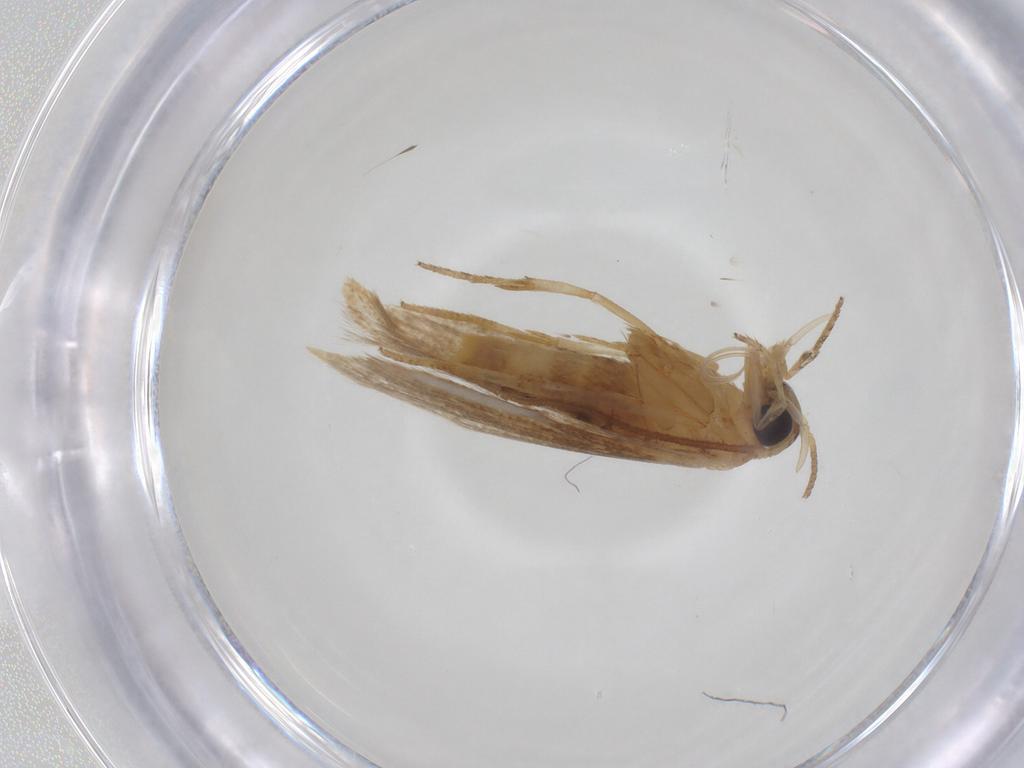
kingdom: Animalia
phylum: Arthropoda
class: Insecta
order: Lepidoptera
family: Blastobasidae
